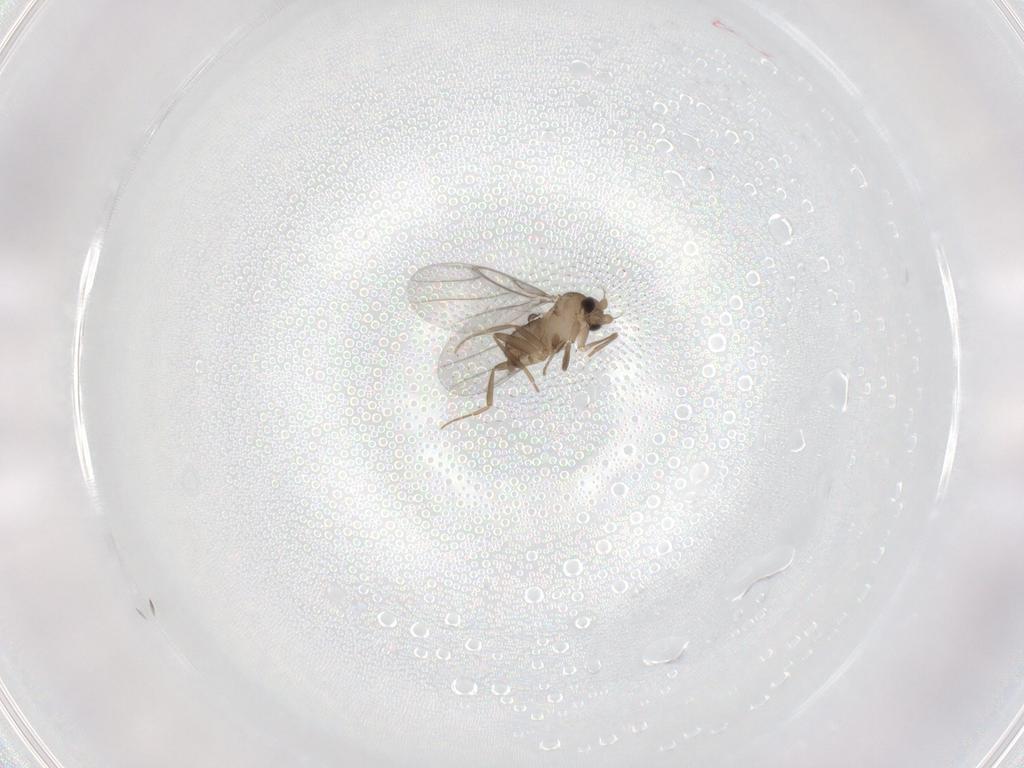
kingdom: Animalia
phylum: Arthropoda
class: Insecta
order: Diptera
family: Ceratopogonidae
